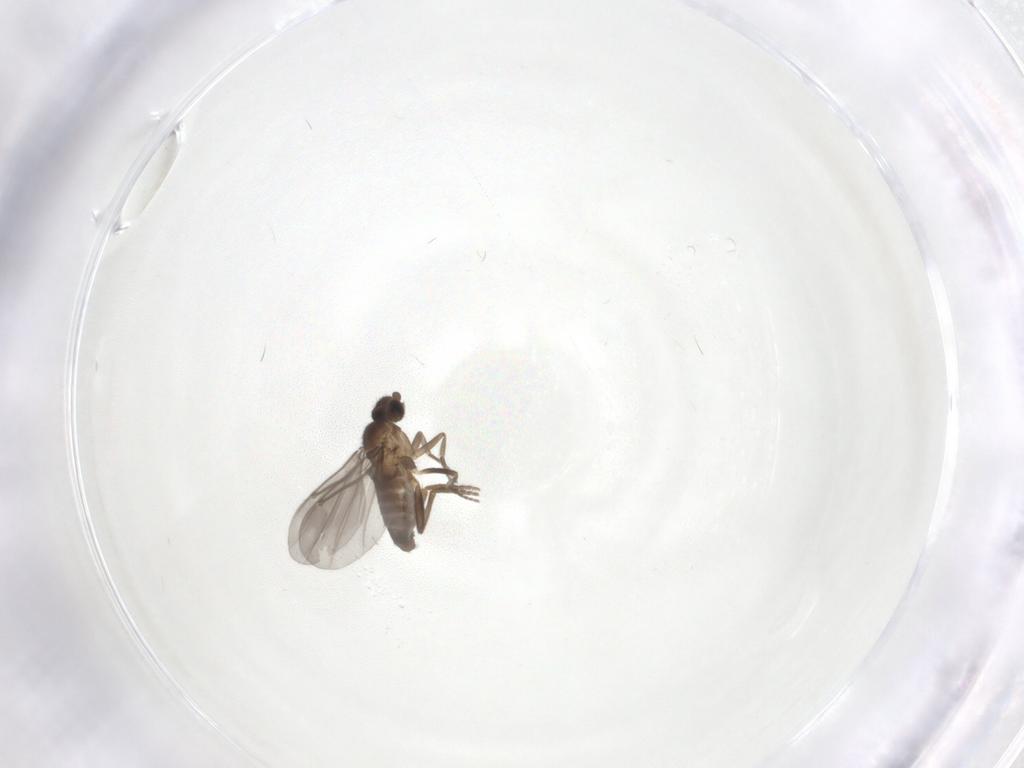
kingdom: Animalia
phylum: Arthropoda
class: Insecta
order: Diptera
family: Phoridae
